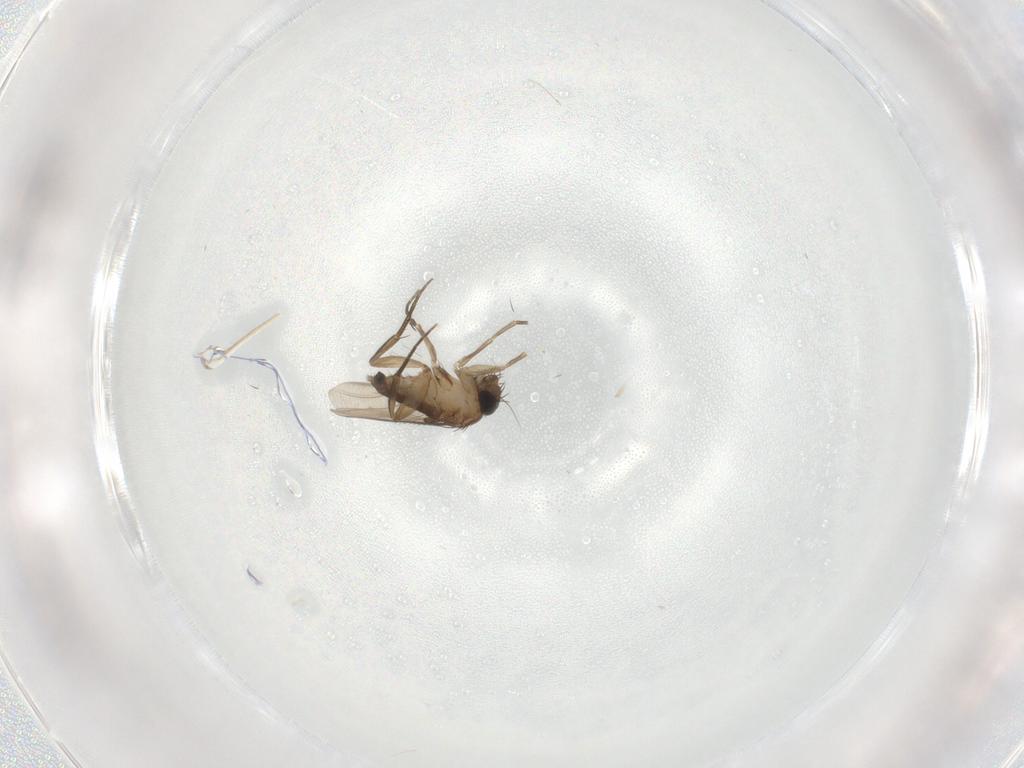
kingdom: Animalia
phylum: Arthropoda
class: Insecta
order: Diptera
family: Phoridae
